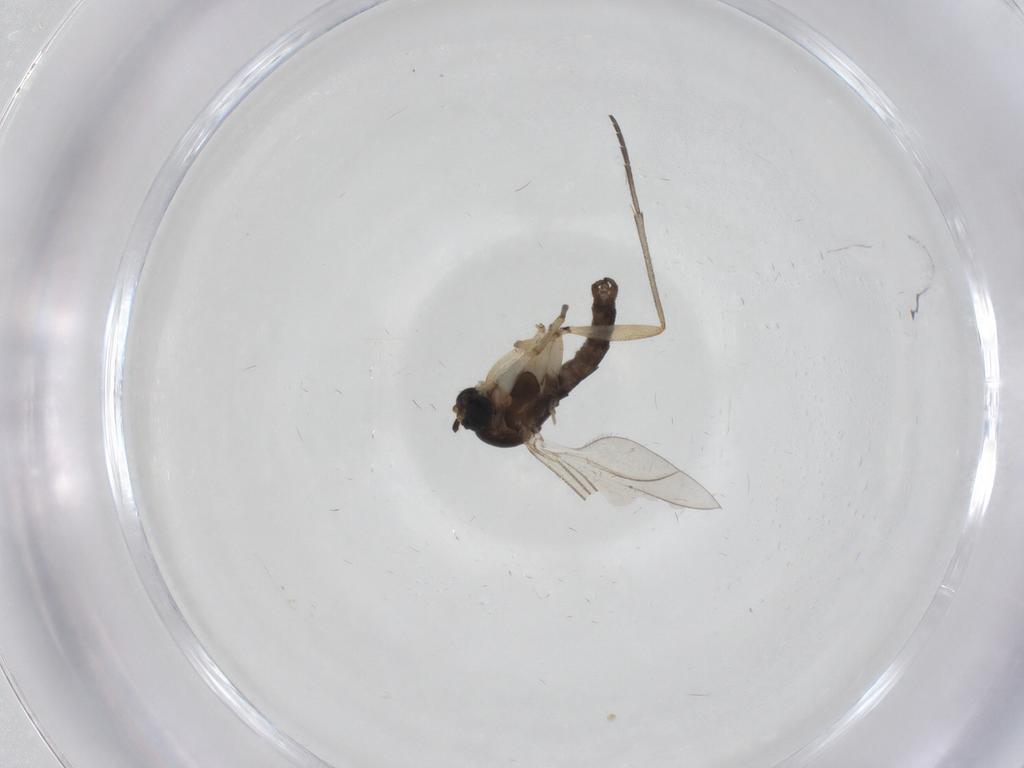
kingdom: Animalia
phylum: Arthropoda
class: Insecta
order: Diptera
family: Sciaridae
